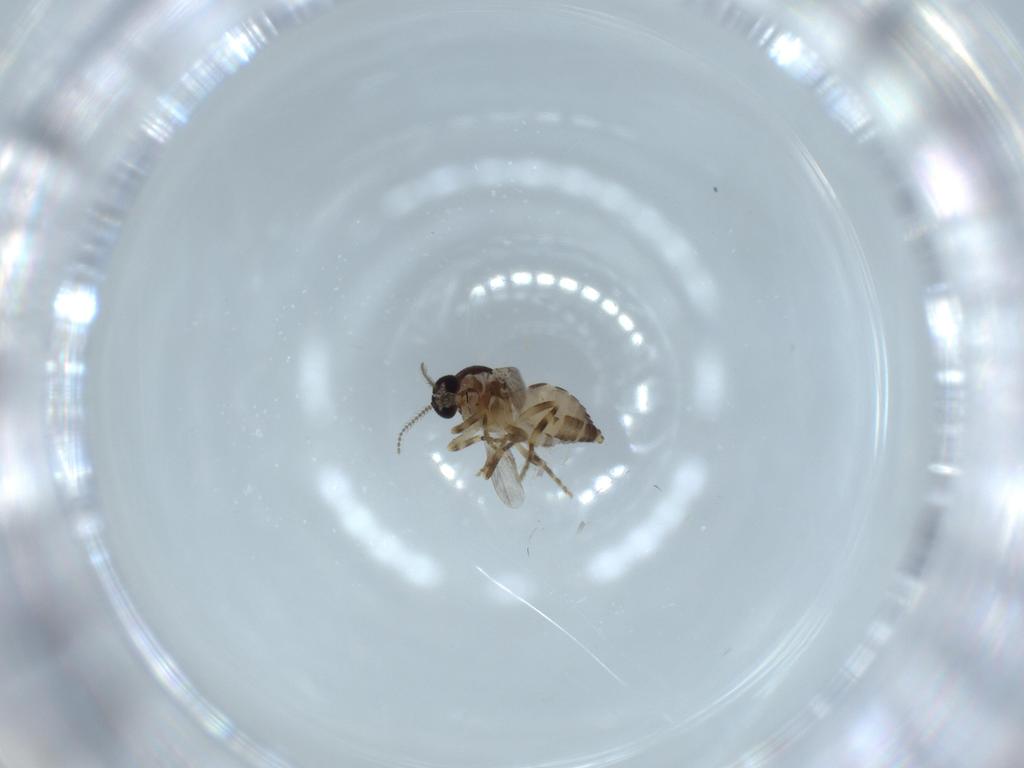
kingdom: Animalia
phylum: Arthropoda
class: Insecta
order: Diptera
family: Ceratopogonidae
